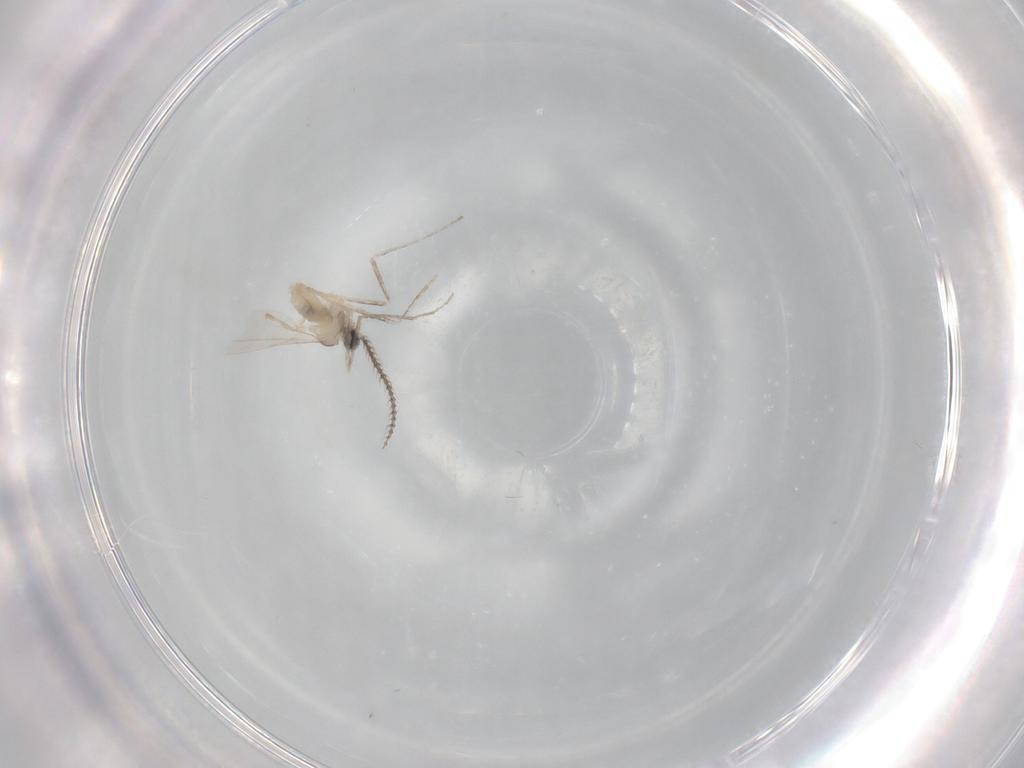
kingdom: Animalia
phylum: Arthropoda
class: Insecta
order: Diptera
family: Cecidomyiidae
